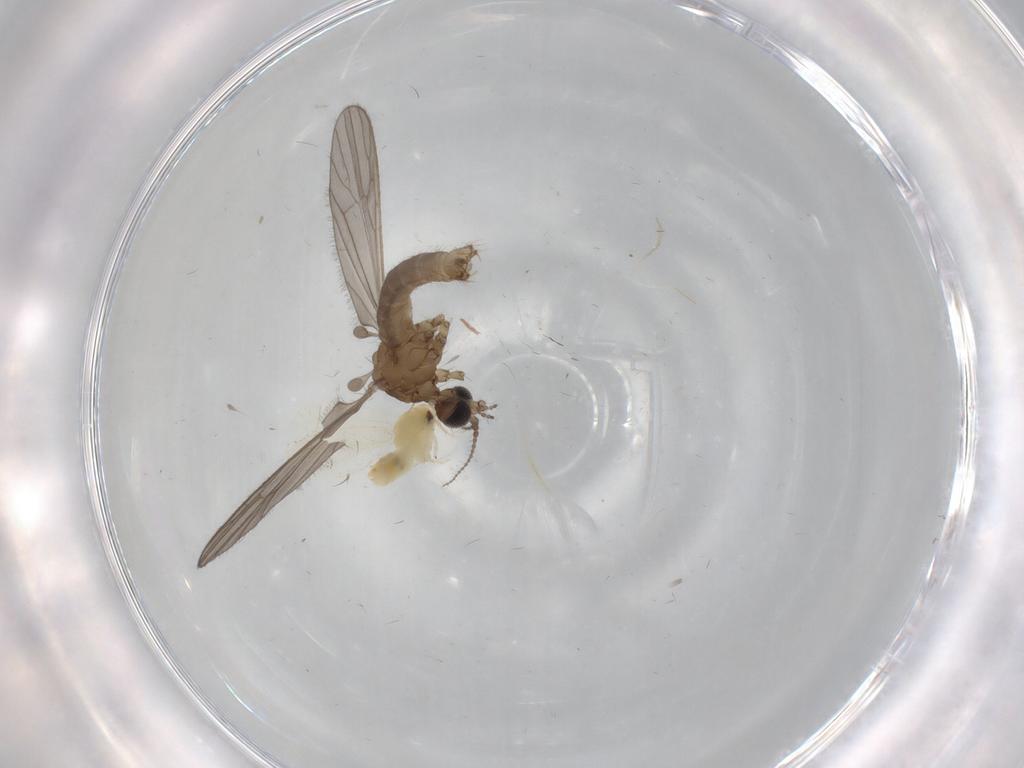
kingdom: Animalia
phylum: Arthropoda
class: Insecta
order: Diptera
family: Limoniidae
